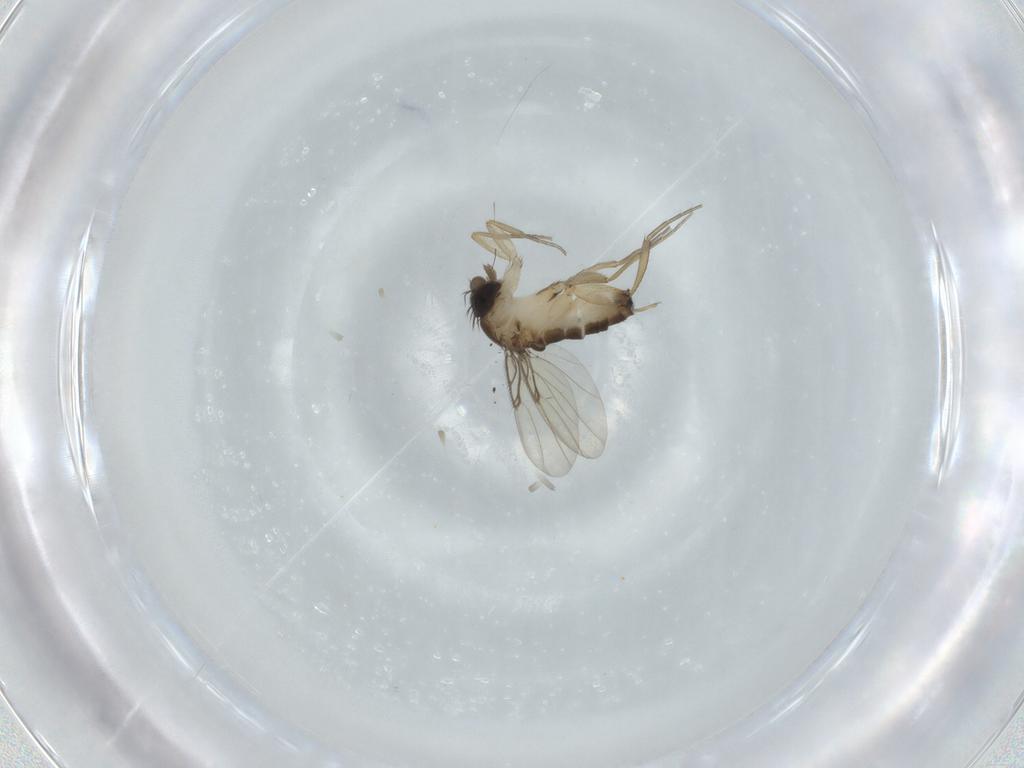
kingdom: Animalia
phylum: Arthropoda
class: Insecta
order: Diptera
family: Phoridae
